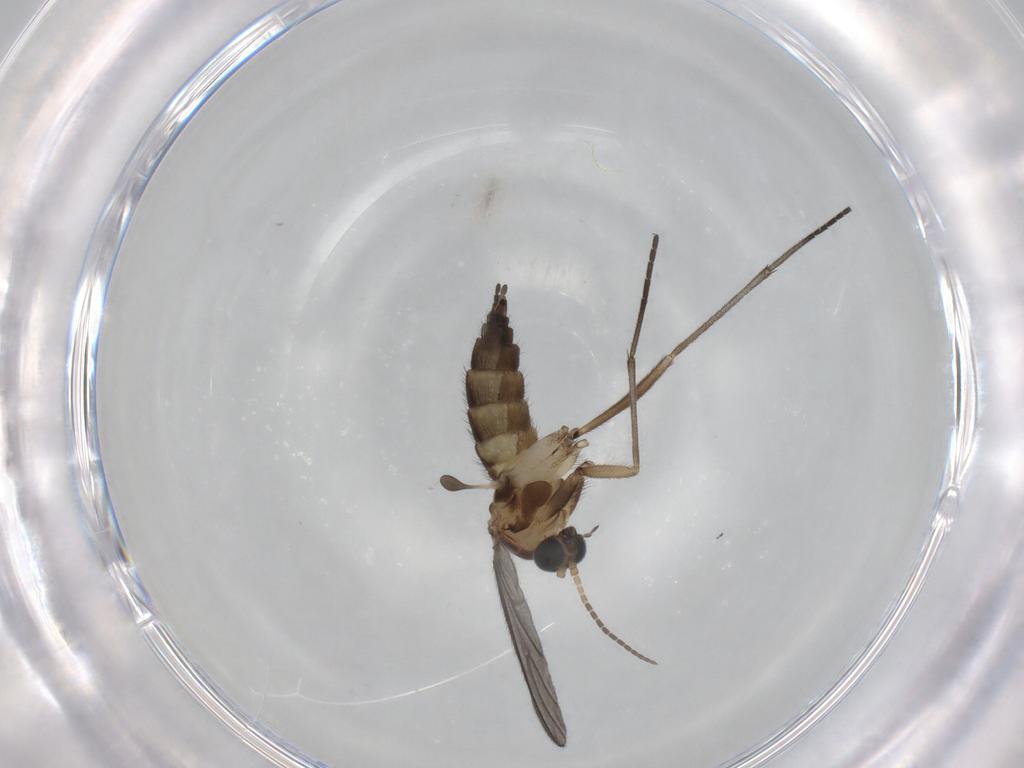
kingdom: Animalia
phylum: Arthropoda
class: Insecta
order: Diptera
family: Sciaridae
